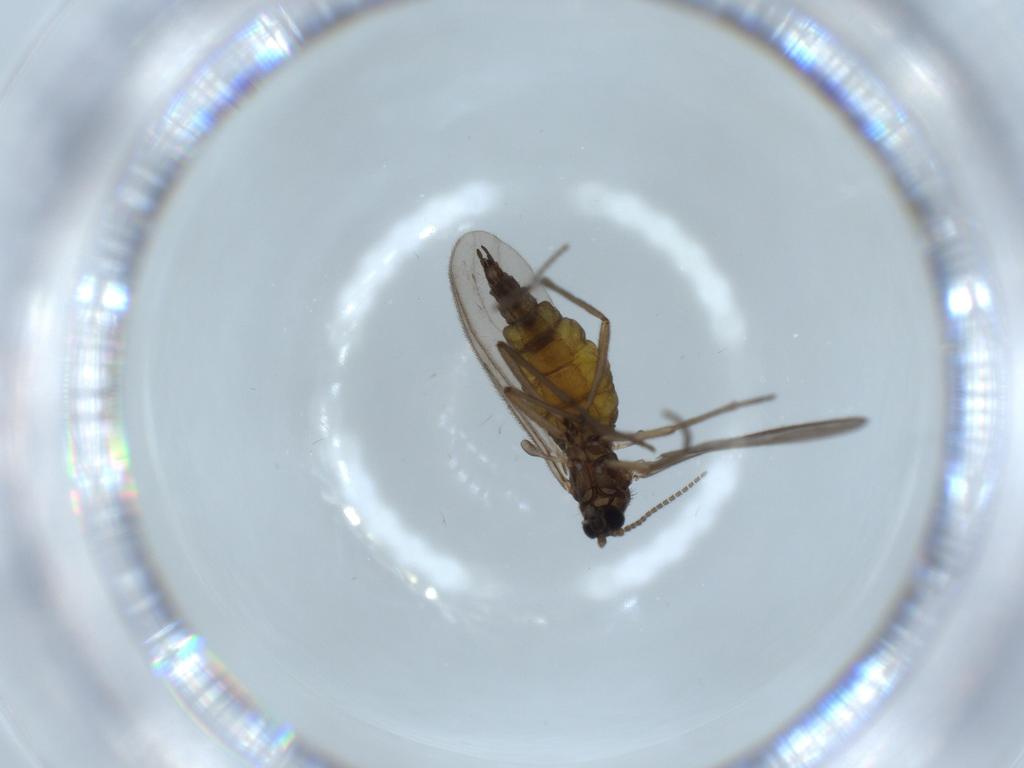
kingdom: Animalia
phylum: Arthropoda
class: Insecta
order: Diptera
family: Sciaridae
